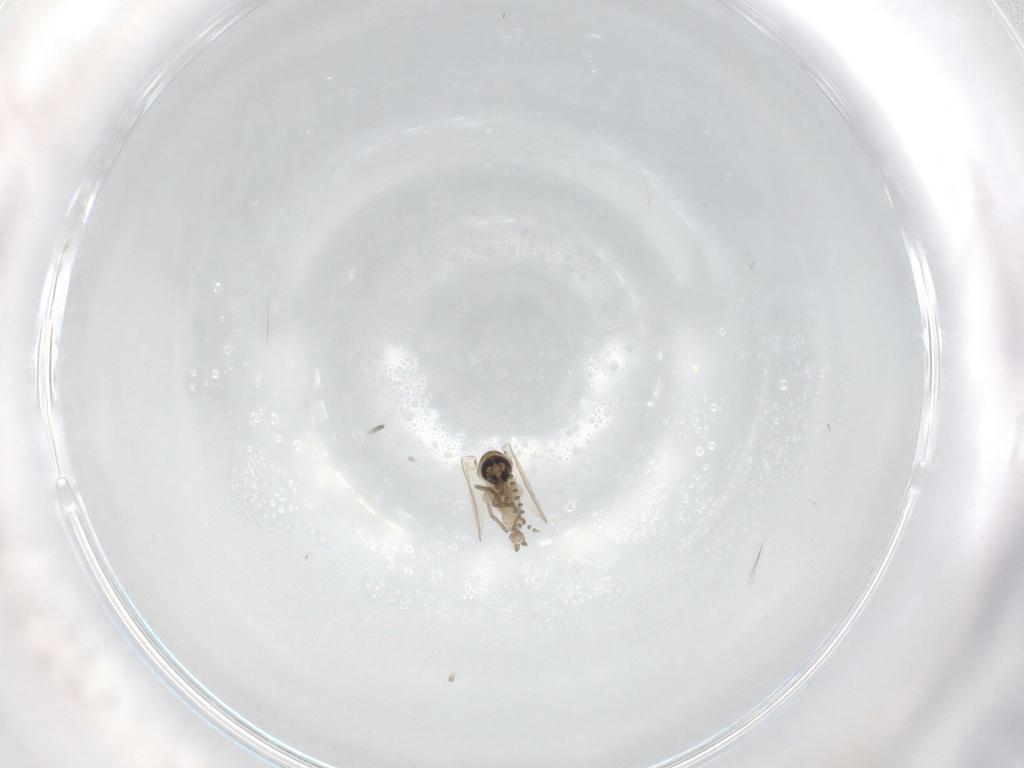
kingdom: Animalia
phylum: Arthropoda
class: Insecta
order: Diptera
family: Psychodidae
